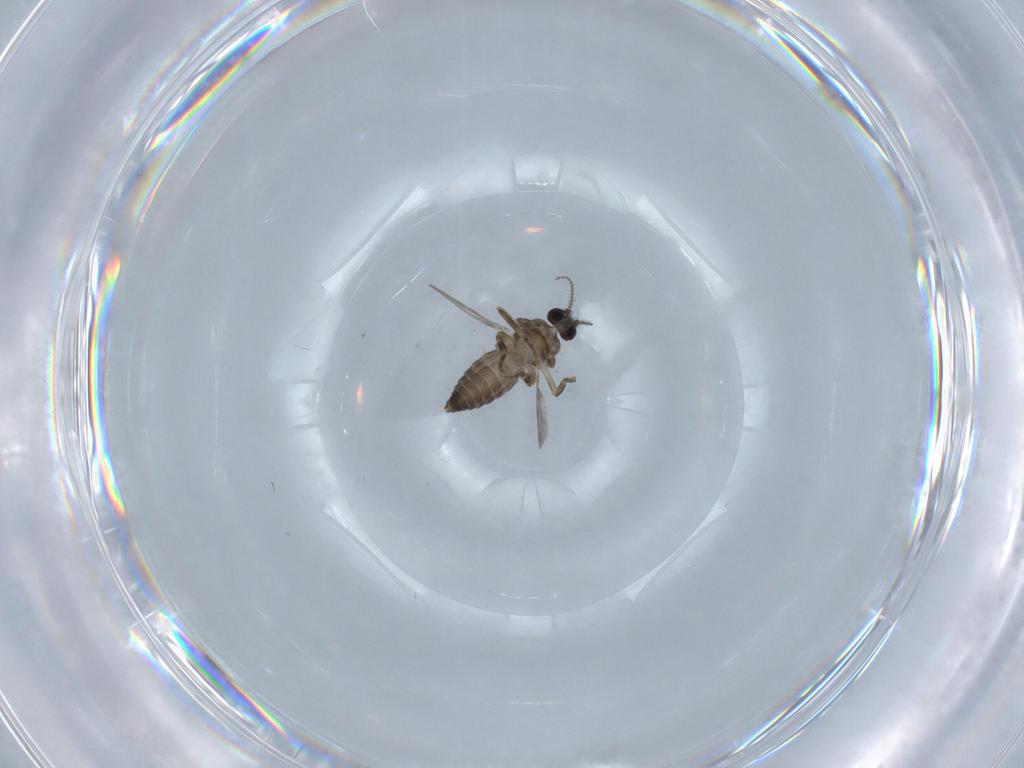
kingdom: Animalia
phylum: Arthropoda
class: Insecta
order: Diptera
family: Ceratopogonidae
